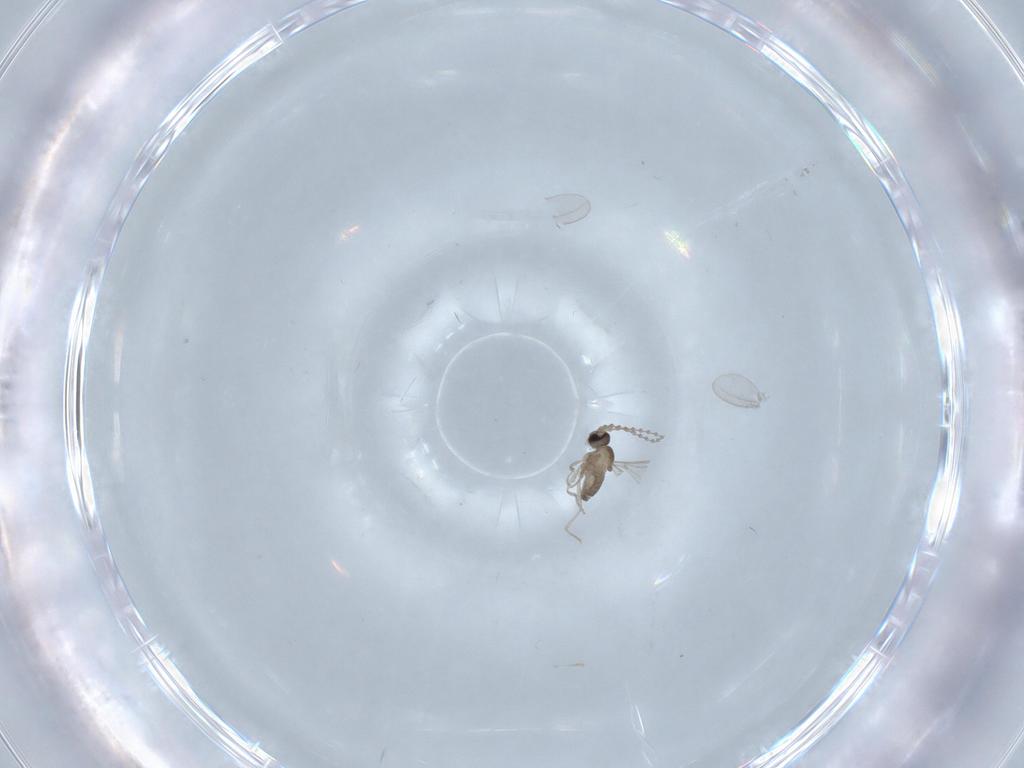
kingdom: Animalia
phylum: Arthropoda
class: Insecta
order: Diptera
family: Cecidomyiidae
